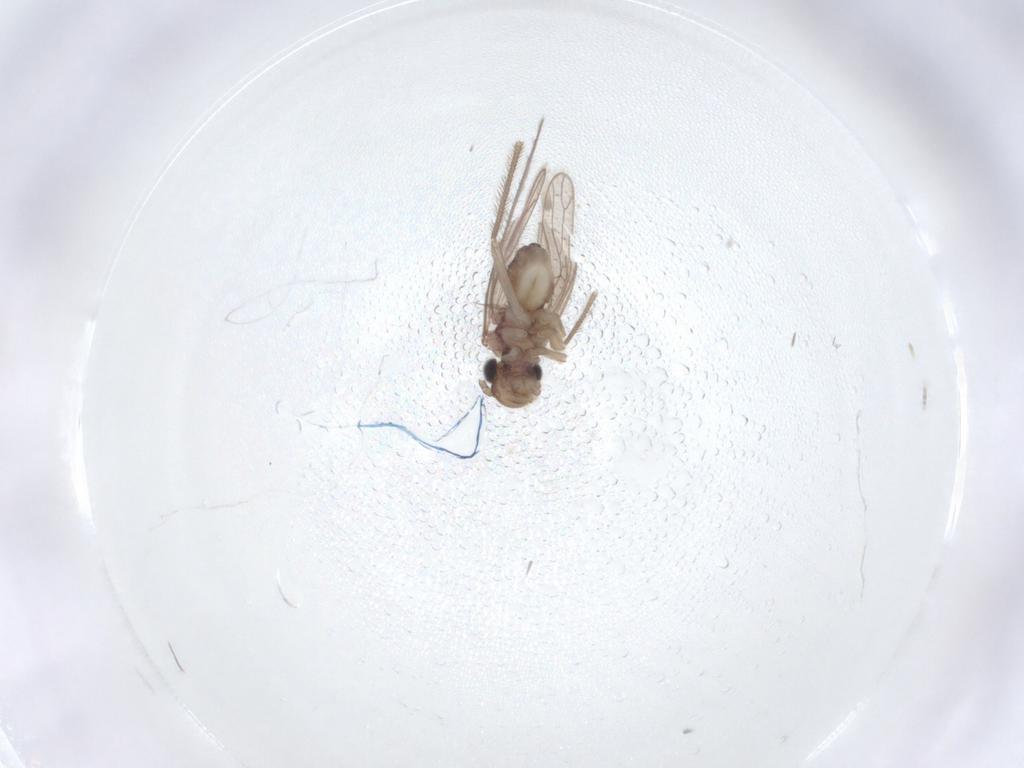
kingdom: Animalia
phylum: Arthropoda
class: Insecta
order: Psocodea
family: Cladiopsocidae
